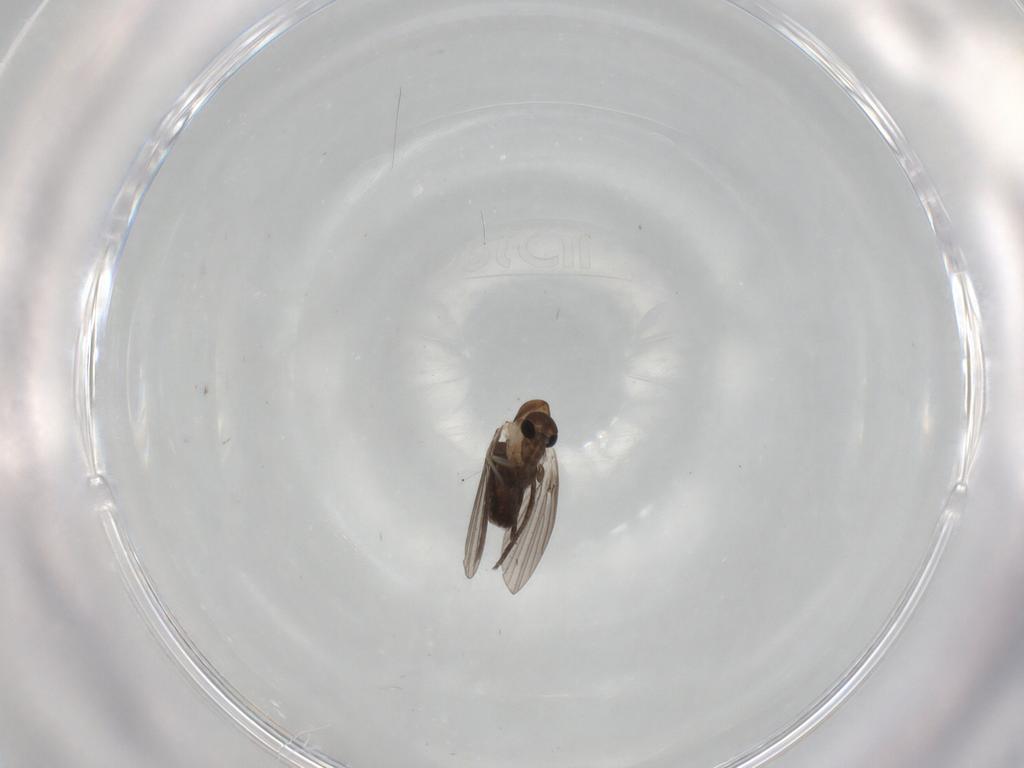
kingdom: Animalia
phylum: Arthropoda
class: Insecta
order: Diptera
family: Psychodidae
